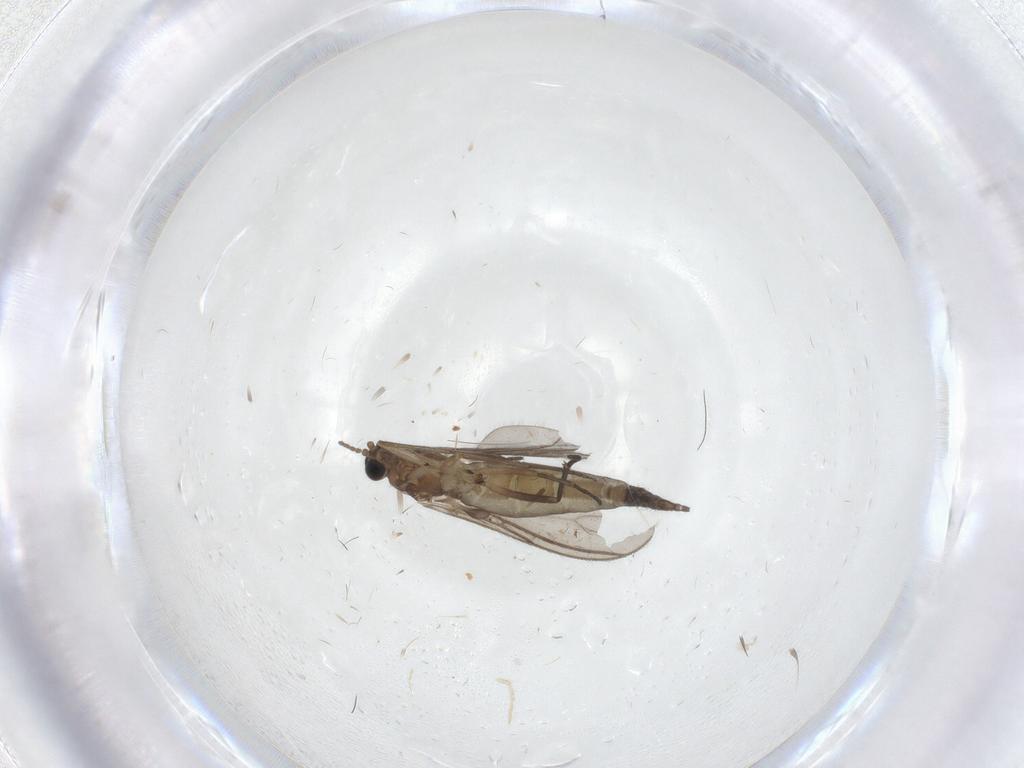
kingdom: Animalia
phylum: Arthropoda
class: Insecta
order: Diptera
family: Sciaridae
